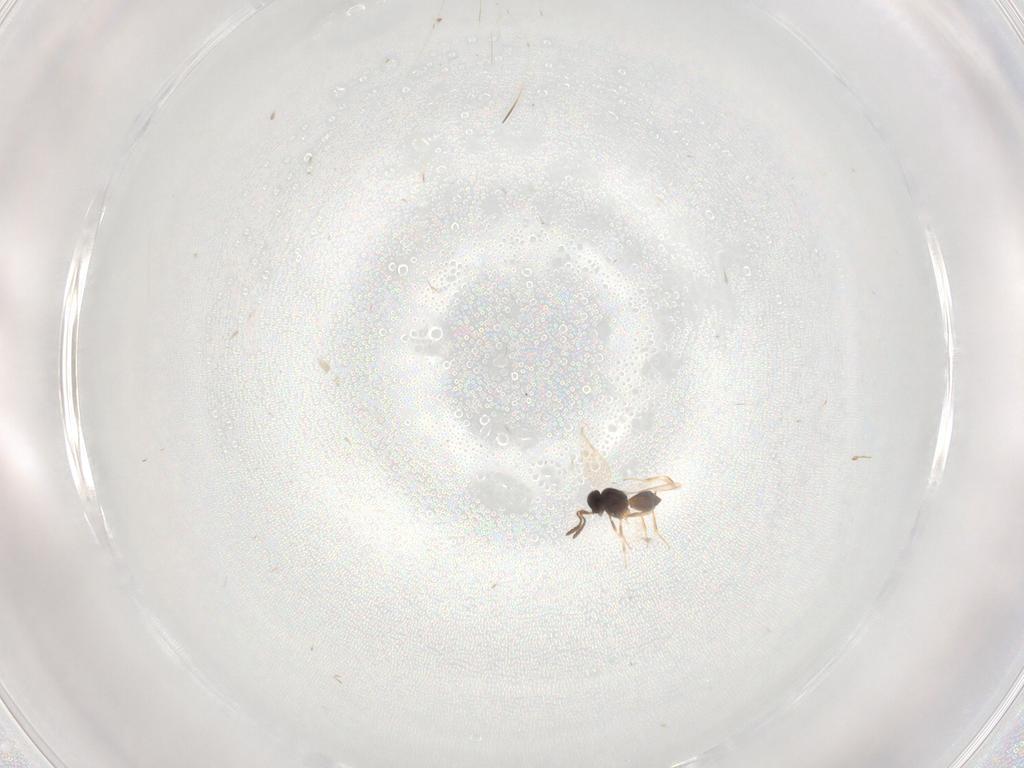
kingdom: Animalia
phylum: Arthropoda
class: Insecta
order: Hymenoptera
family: Scelionidae
